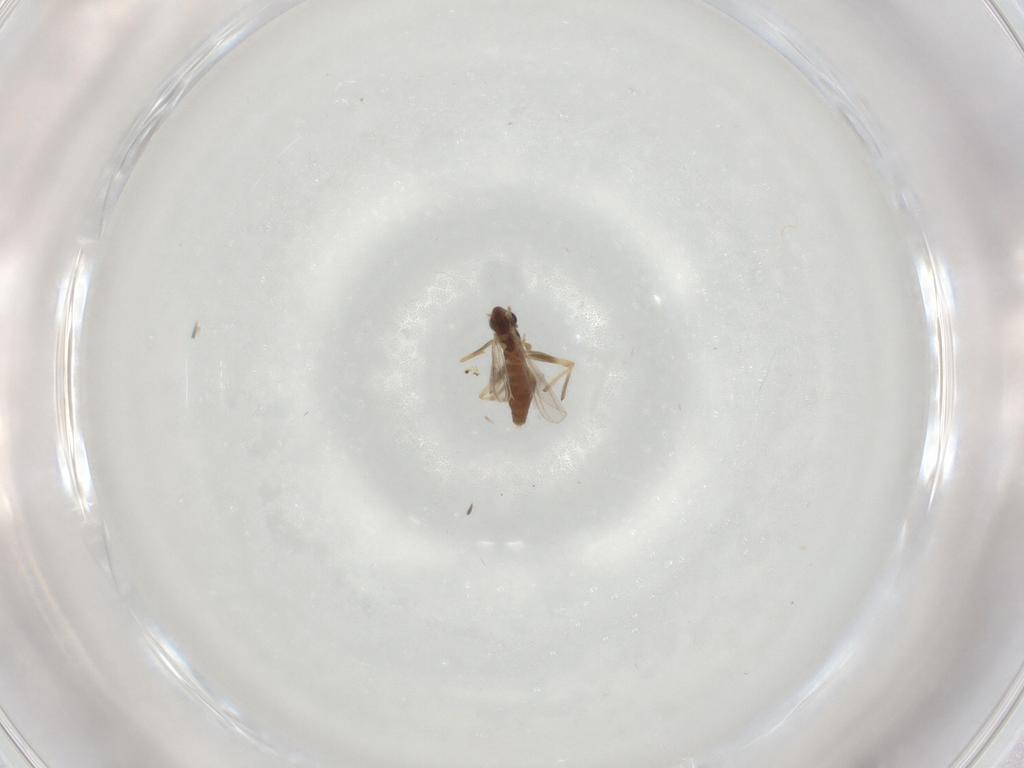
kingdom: Animalia
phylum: Arthropoda
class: Insecta
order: Diptera
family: Chironomidae
